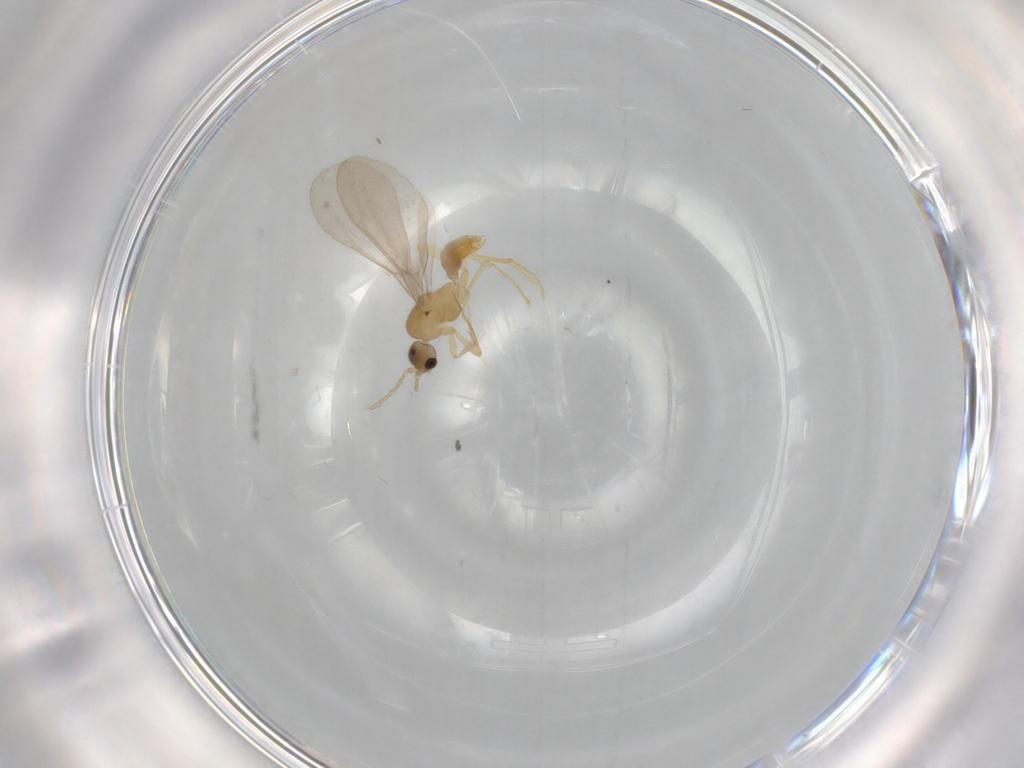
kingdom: Animalia
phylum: Arthropoda
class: Insecta
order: Hymenoptera
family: Formicidae
